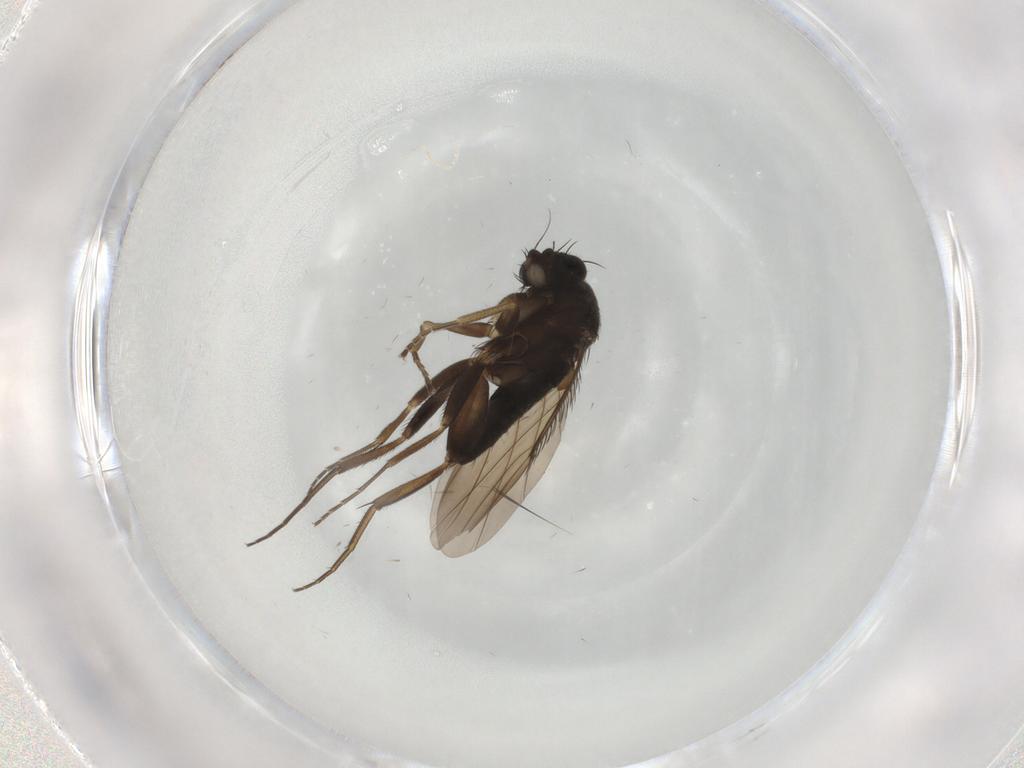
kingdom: Animalia
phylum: Arthropoda
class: Insecta
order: Diptera
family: Phoridae
